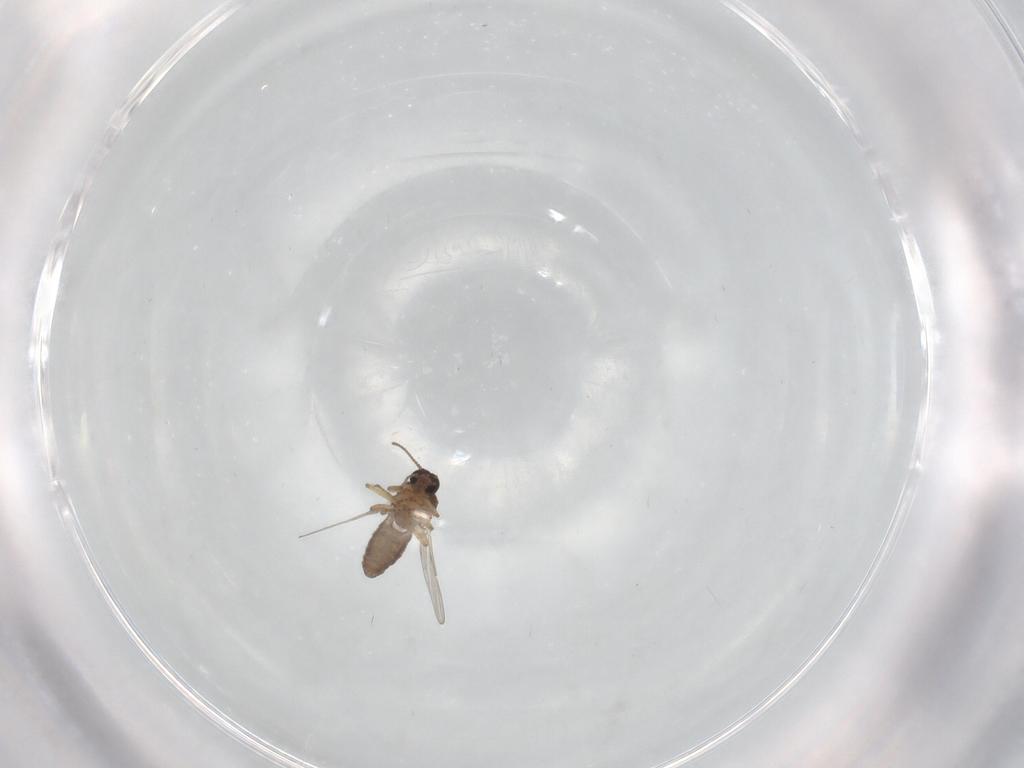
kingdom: Animalia
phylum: Arthropoda
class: Insecta
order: Diptera
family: Ceratopogonidae
